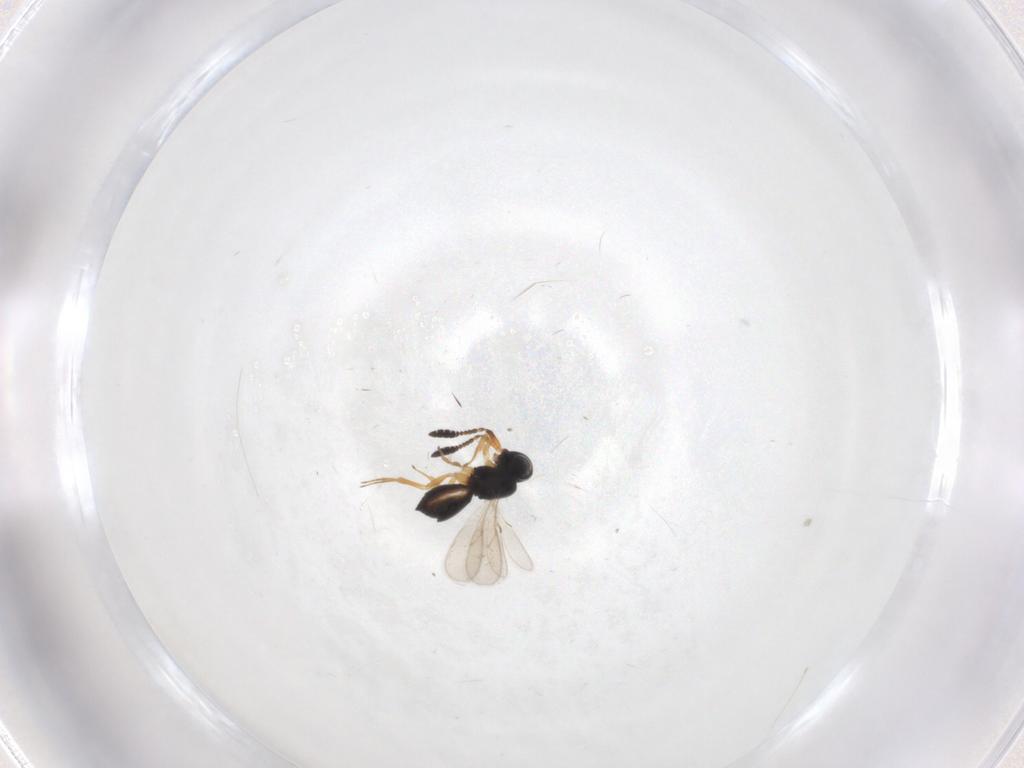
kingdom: Animalia
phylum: Arthropoda
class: Insecta
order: Hymenoptera
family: Scelionidae
